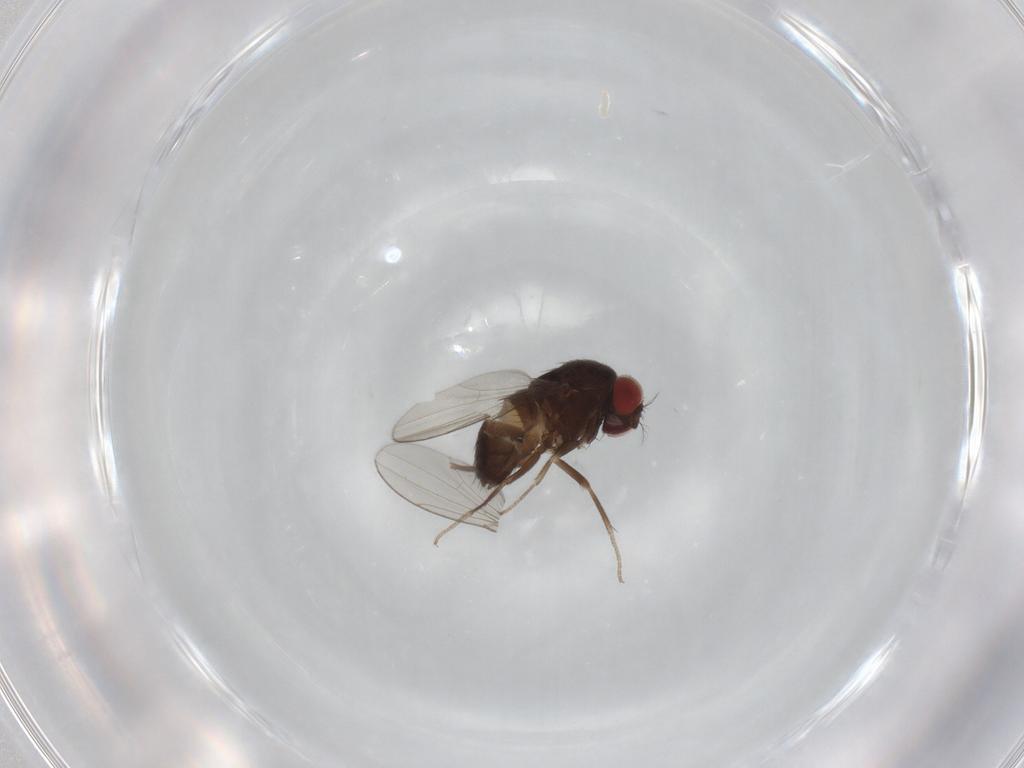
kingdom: Animalia
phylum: Arthropoda
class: Insecta
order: Diptera
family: Drosophilidae
